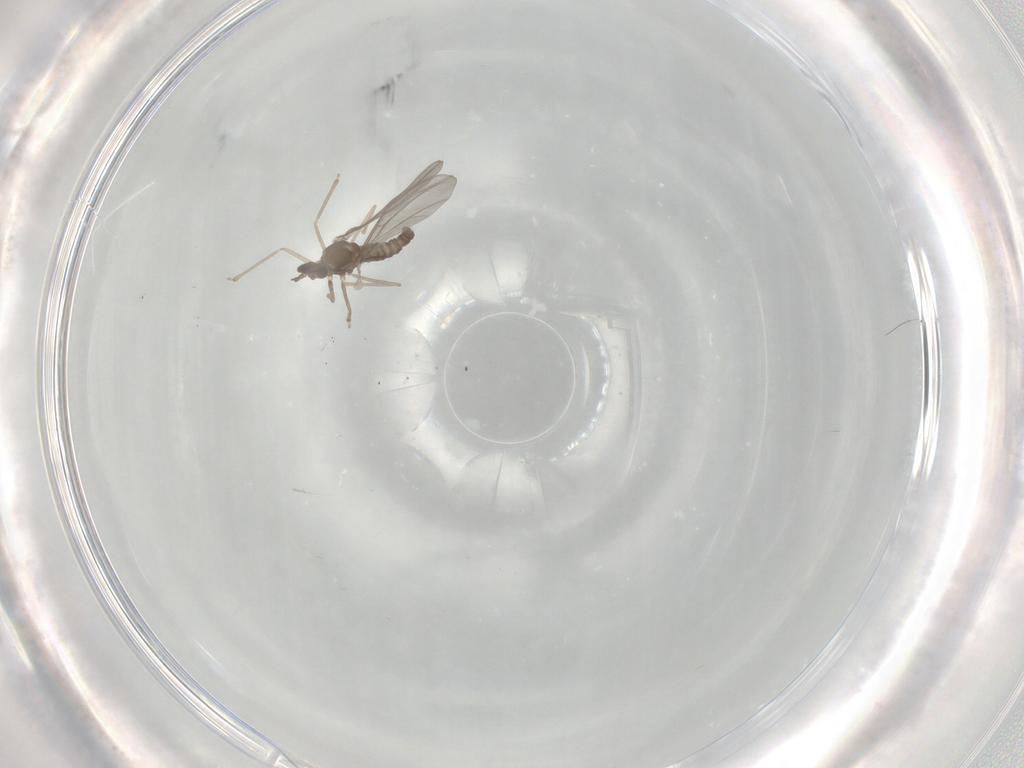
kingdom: Animalia
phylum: Arthropoda
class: Insecta
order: Diptera
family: Cecidomyiidae
